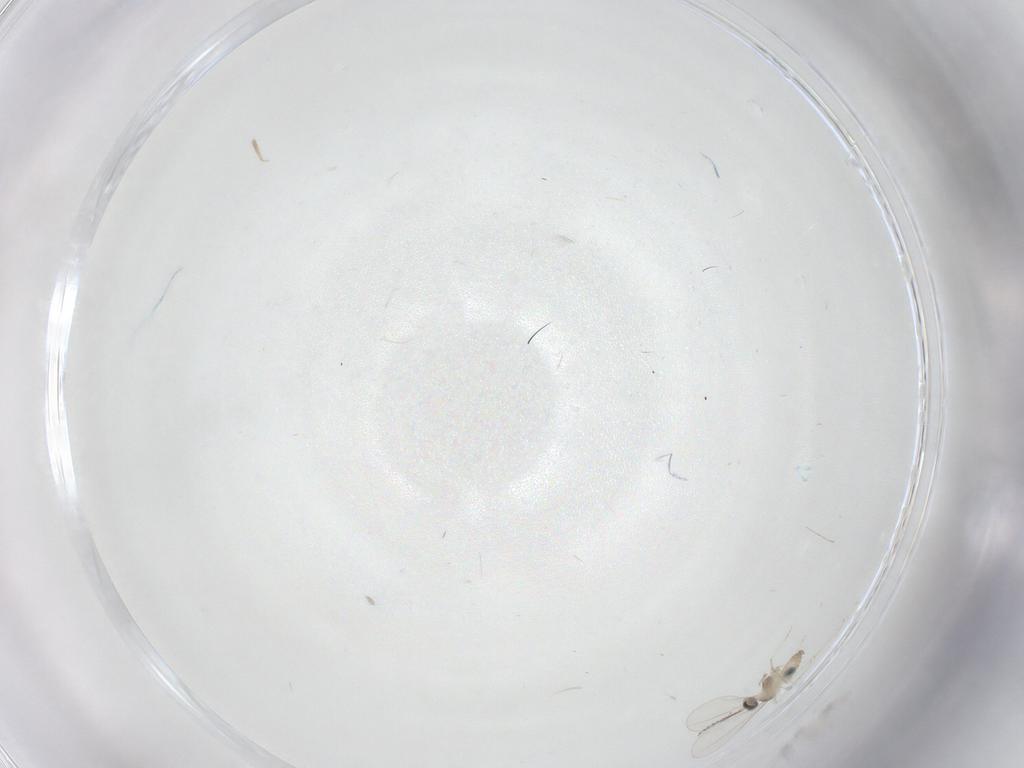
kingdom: Animalia
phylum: Arthropoda
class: Insecta
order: Diptera
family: Cecidomyiidae
